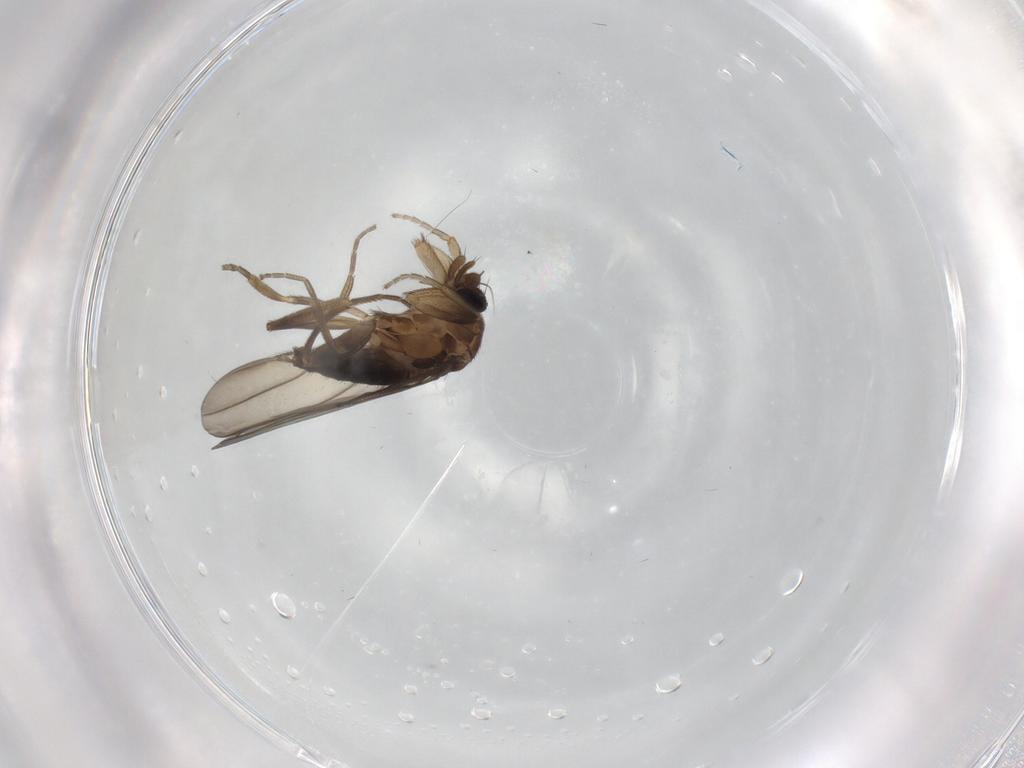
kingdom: Animalia
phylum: Arthropoda
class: Insecta
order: Diptera
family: Phoridae
